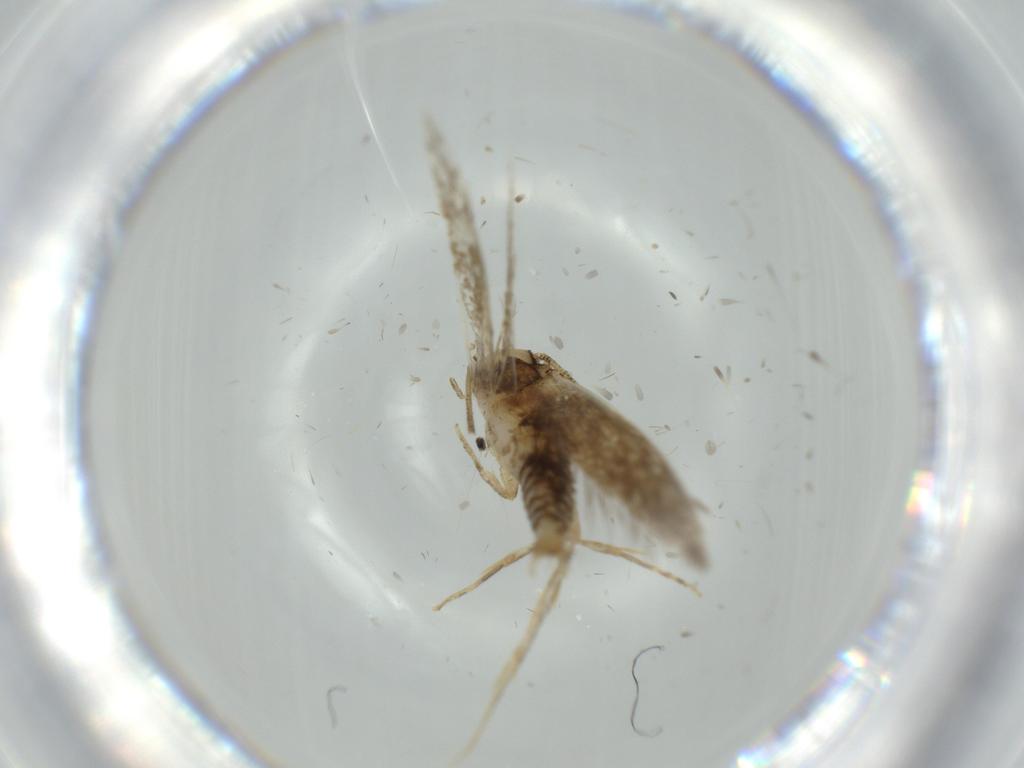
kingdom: Animalia
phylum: Arthropoda
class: Insecta
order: Lepidoptera
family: Tineidae
